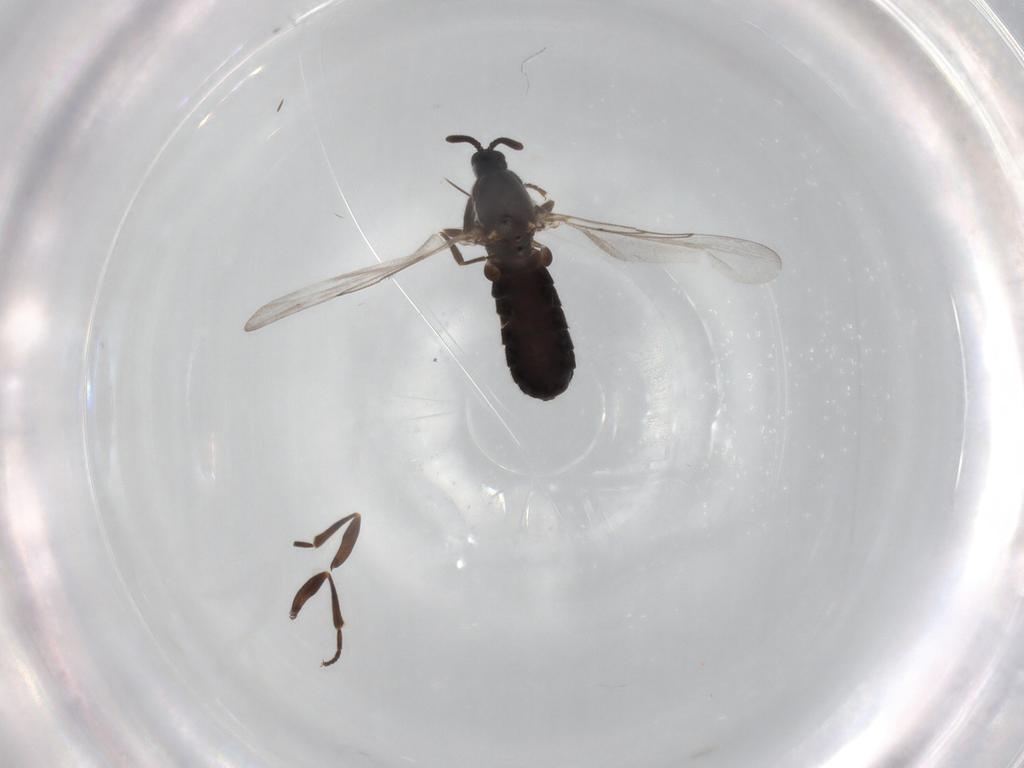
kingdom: Animalia
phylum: Arthropoda
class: Insecta
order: Diptera
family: Scatopsidae
